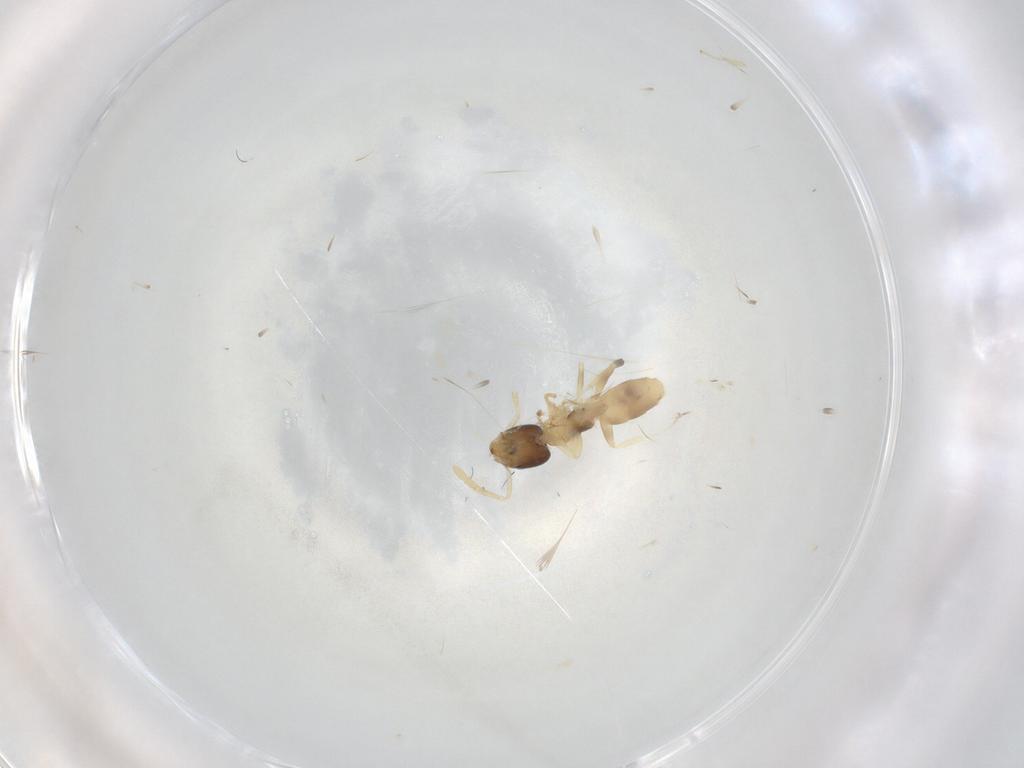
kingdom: Animalia
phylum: Arthropoda
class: Insecta
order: Hymenoptera
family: Formicidae
